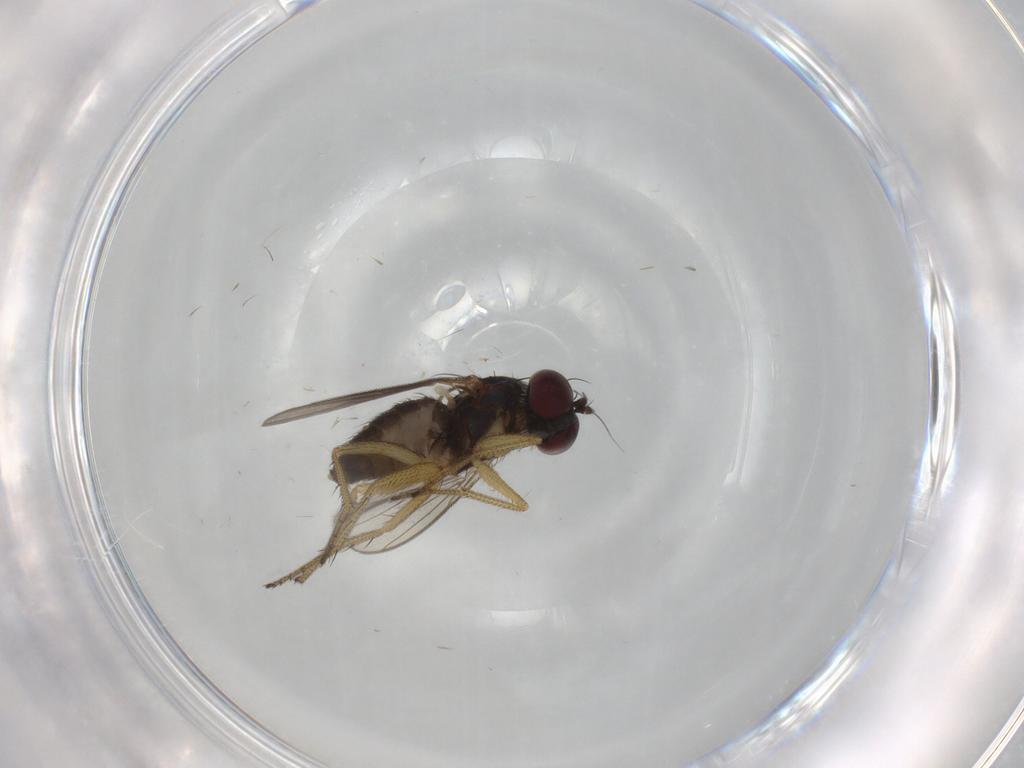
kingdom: Animalia
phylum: Arthropoda
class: Insecta
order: Diptera
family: Dolichopodidae
